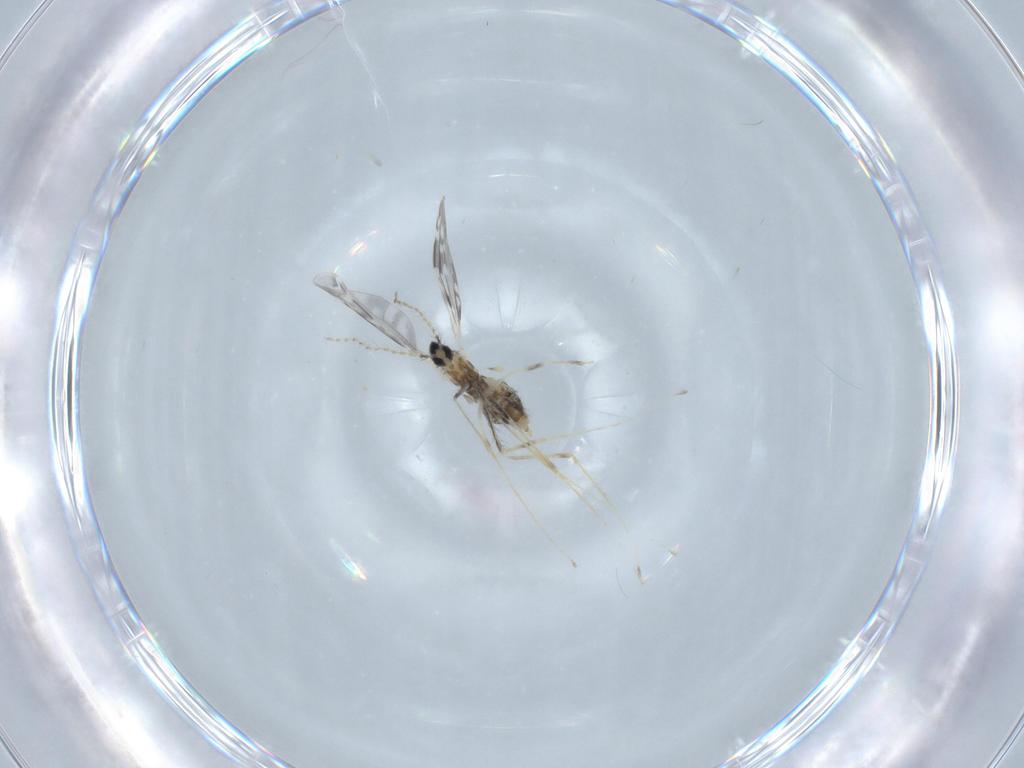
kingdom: Animalia
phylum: Arthropoda
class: Insecta
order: Diptera
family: Cecidomyiidae
